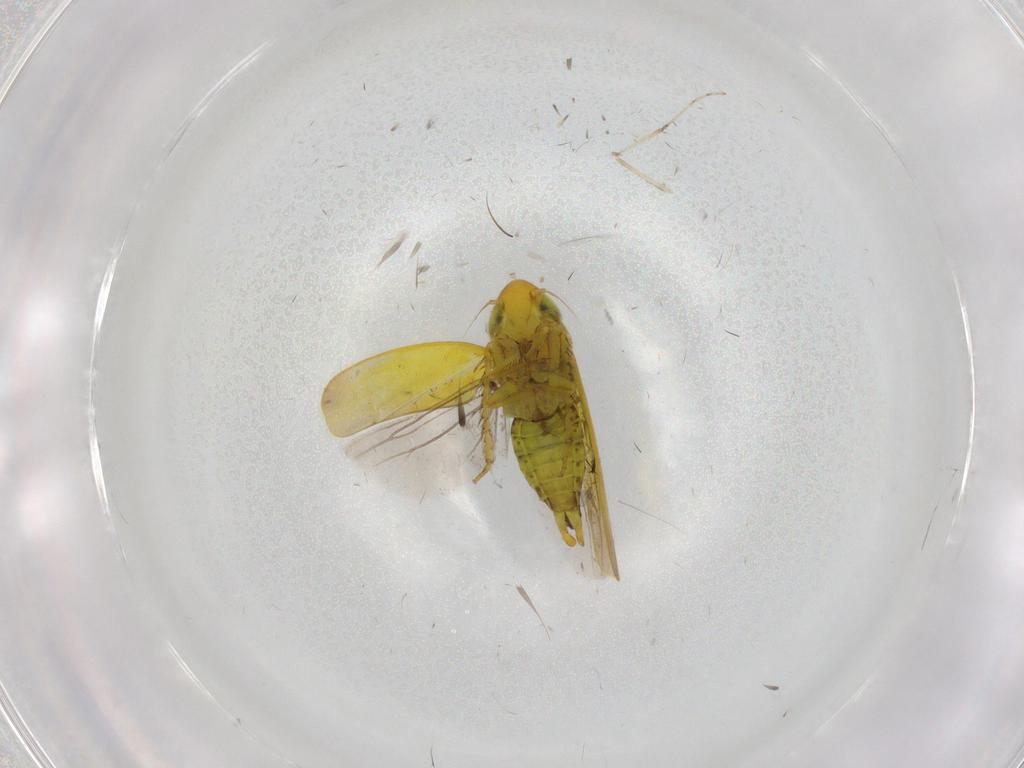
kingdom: Animalia
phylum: Arthropoda
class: Insecta
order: Hemiptera
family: Cicadellidae
